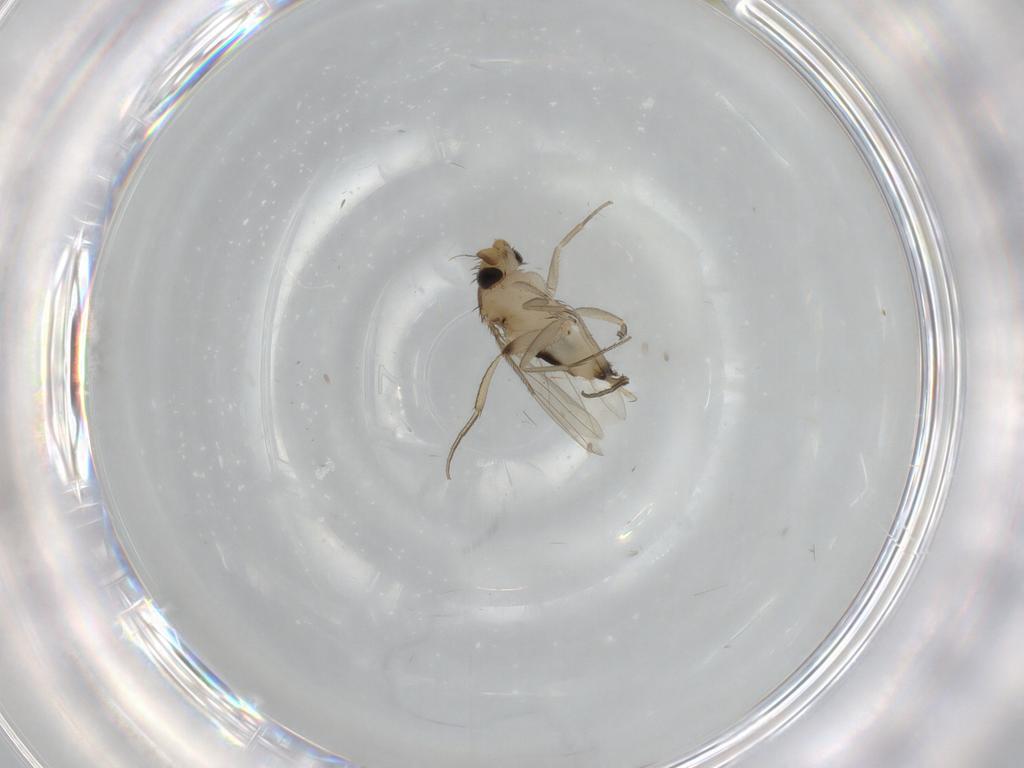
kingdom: Animalia
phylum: Arthropoda
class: Insecta
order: Diptera
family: Phoridae
